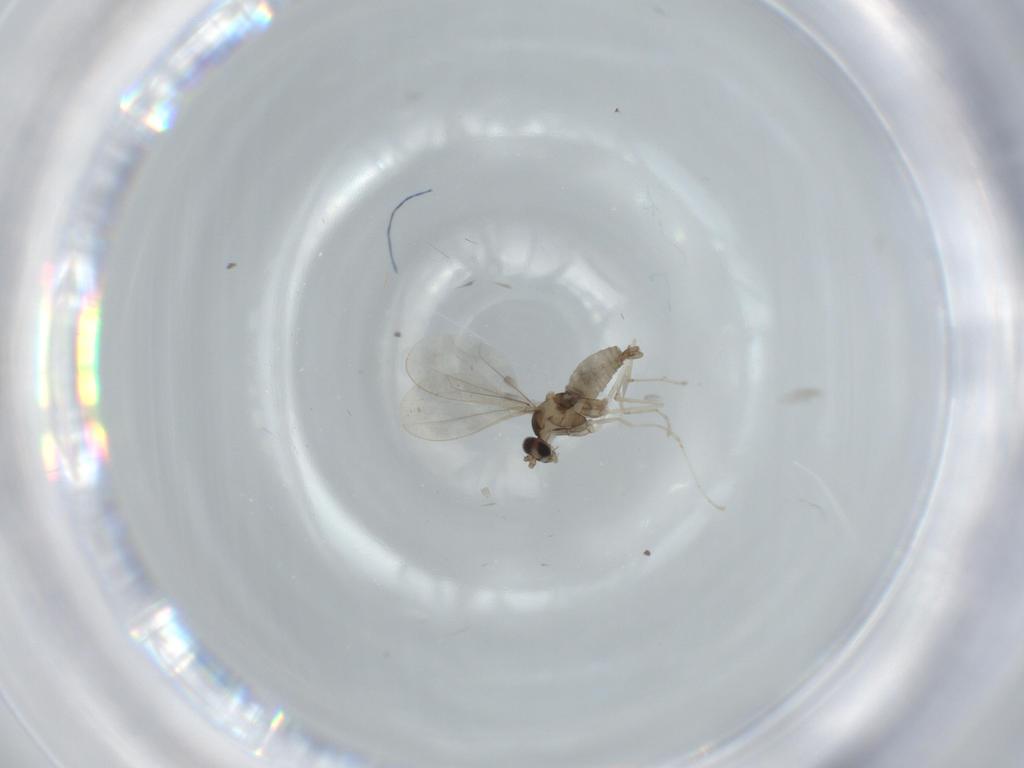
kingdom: Animalia
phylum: Arthropoda
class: Insecta
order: Diptera
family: Cecidomyiidae
